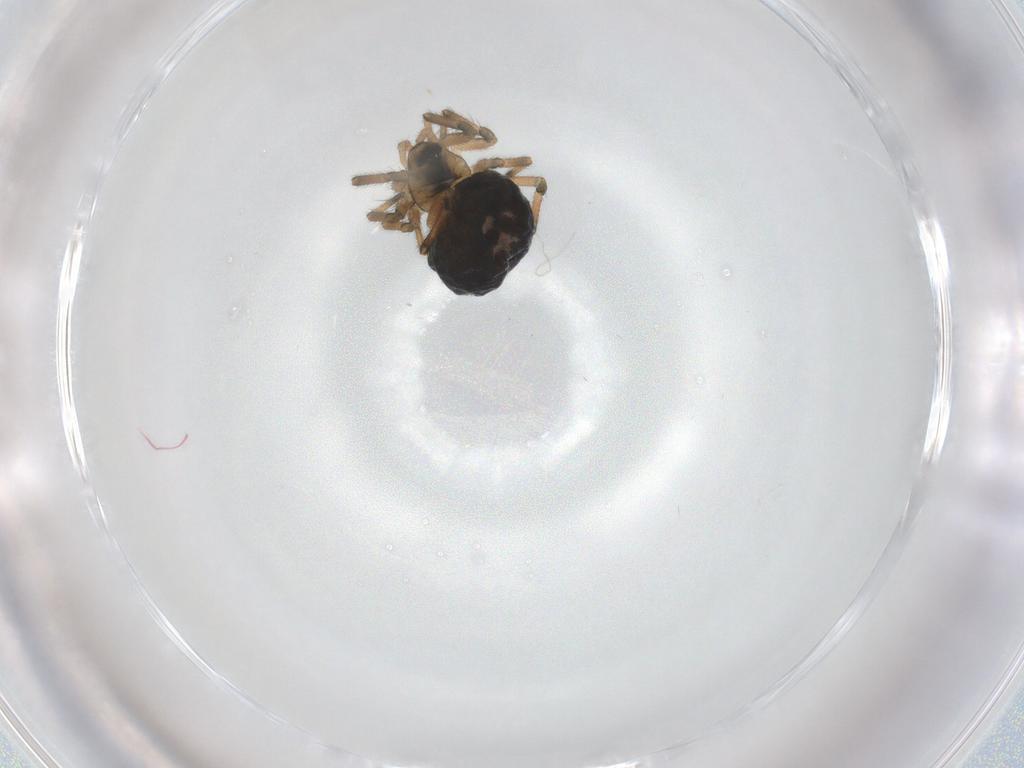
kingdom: Animalia
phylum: Arthropoda
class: Arachnida
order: Araneae
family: Linyphiidae
